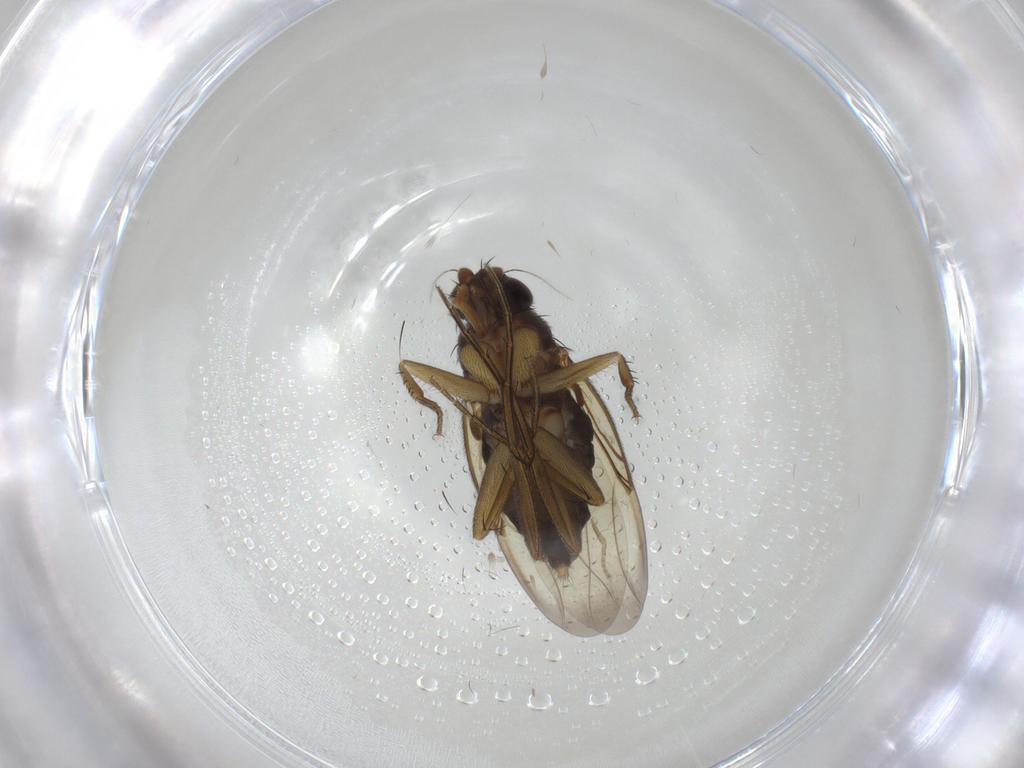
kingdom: Animalia
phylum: Arthropoda
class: Insecta
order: Diptera
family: Phoridae
